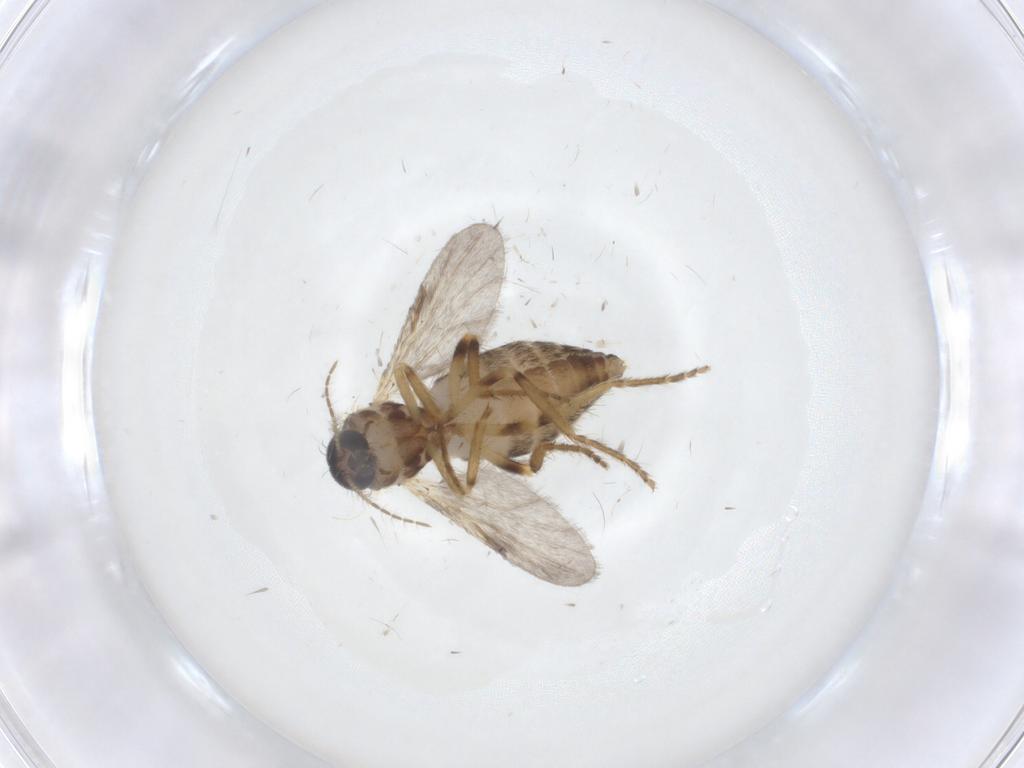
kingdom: Animalia
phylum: Arthropoda
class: Insecta
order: Diptera
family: Ceratopogonidae
